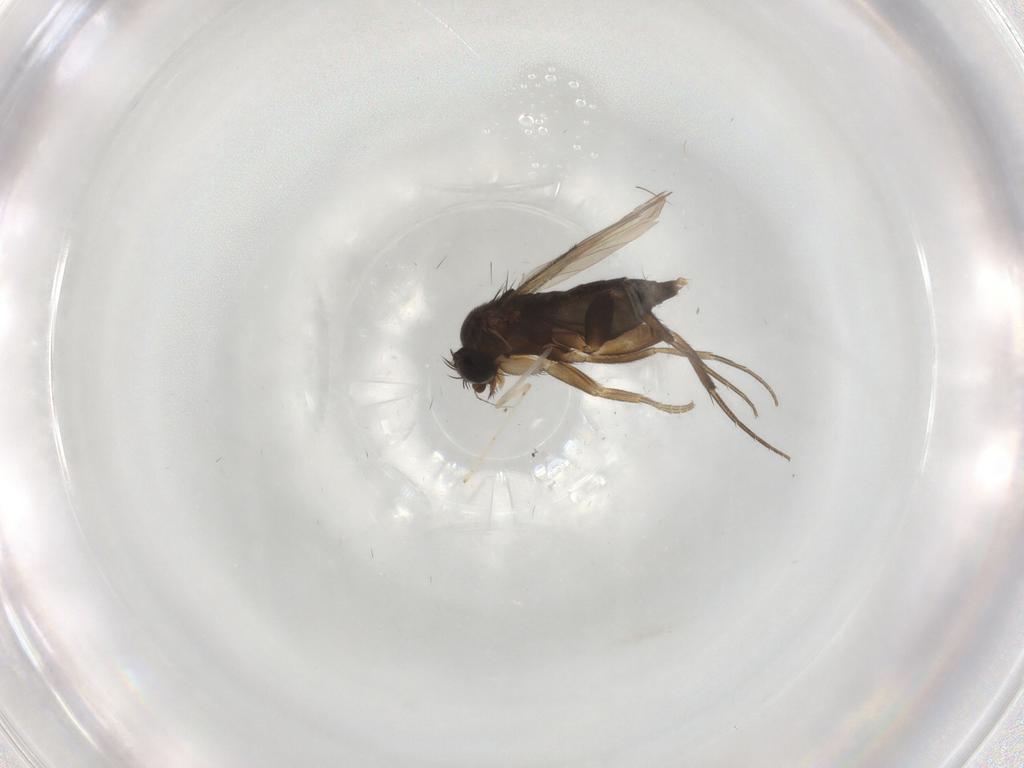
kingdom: Animalia
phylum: Arthropoda
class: Insecta
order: Diptera
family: Phoridae
